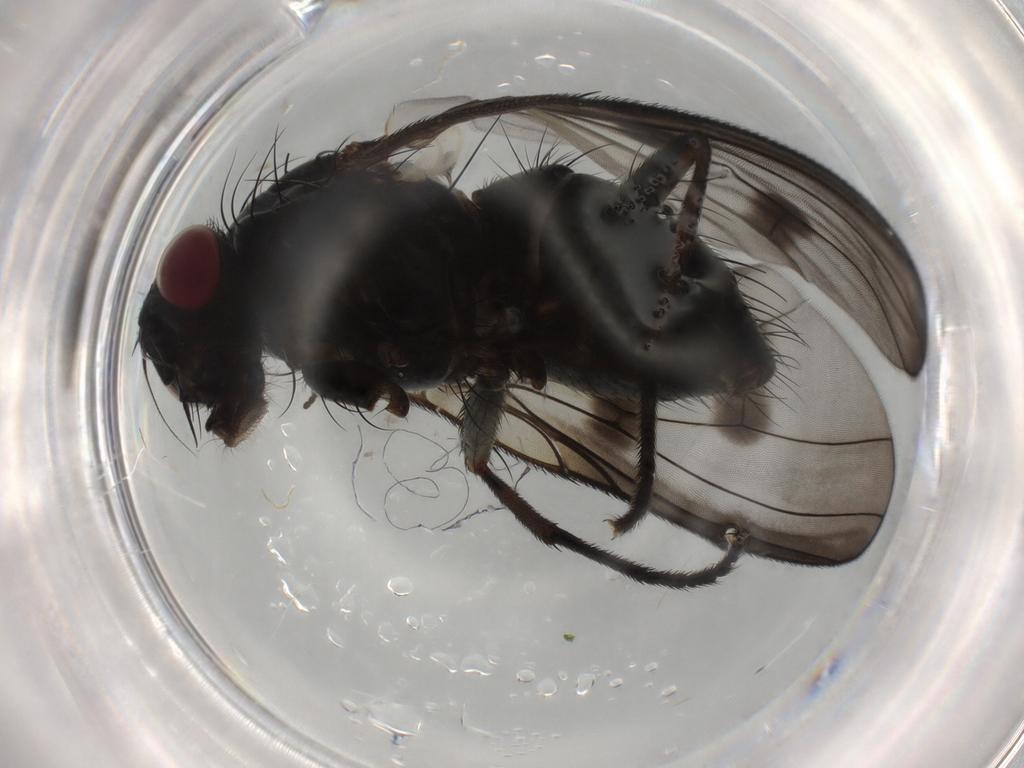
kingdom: Animalia
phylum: Arthropoda
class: Insecta
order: Diptera
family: Muscidae
